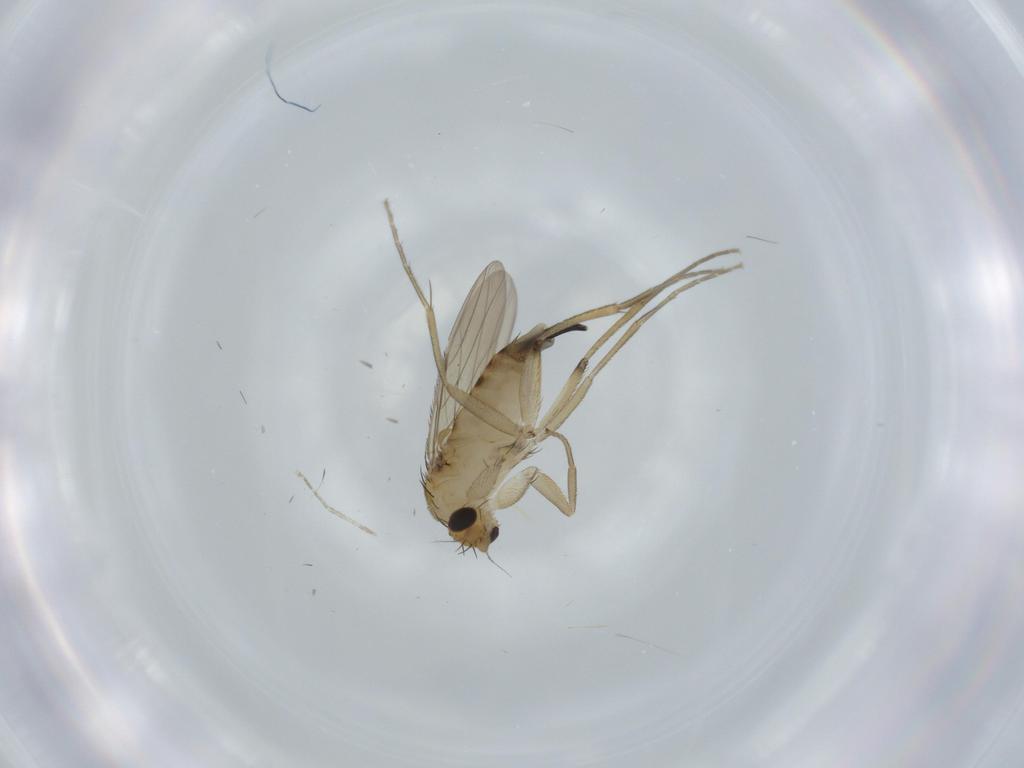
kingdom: Animalia
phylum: Arthropoda
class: Insecta
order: Diptera
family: Phoridae
